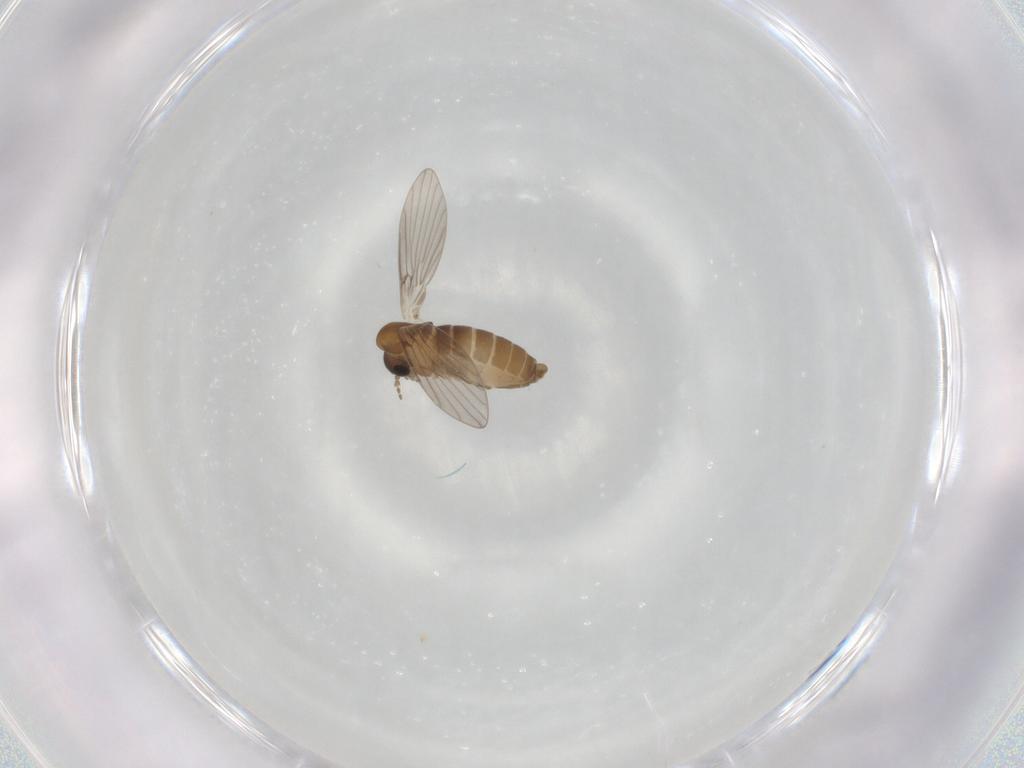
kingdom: Animalia
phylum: Arthropoda
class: Insecta
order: Diptera
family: Psychodidae
